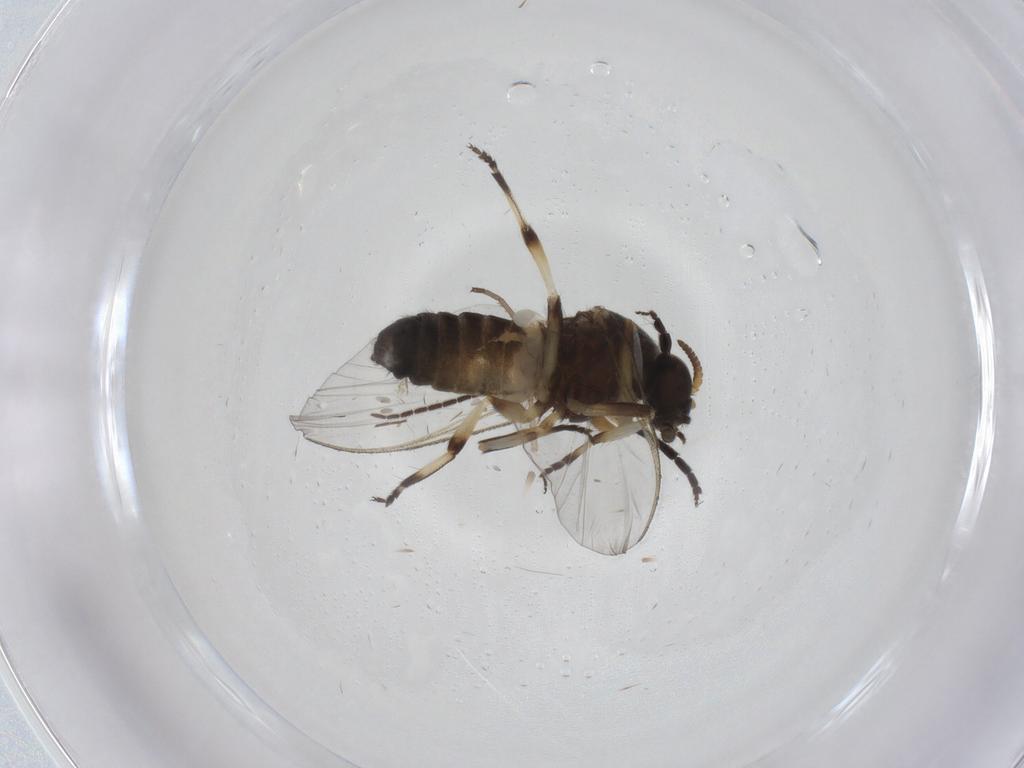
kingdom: Animalia
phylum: Arthropoda
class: Insecta
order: Diptera
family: Simuliidae
